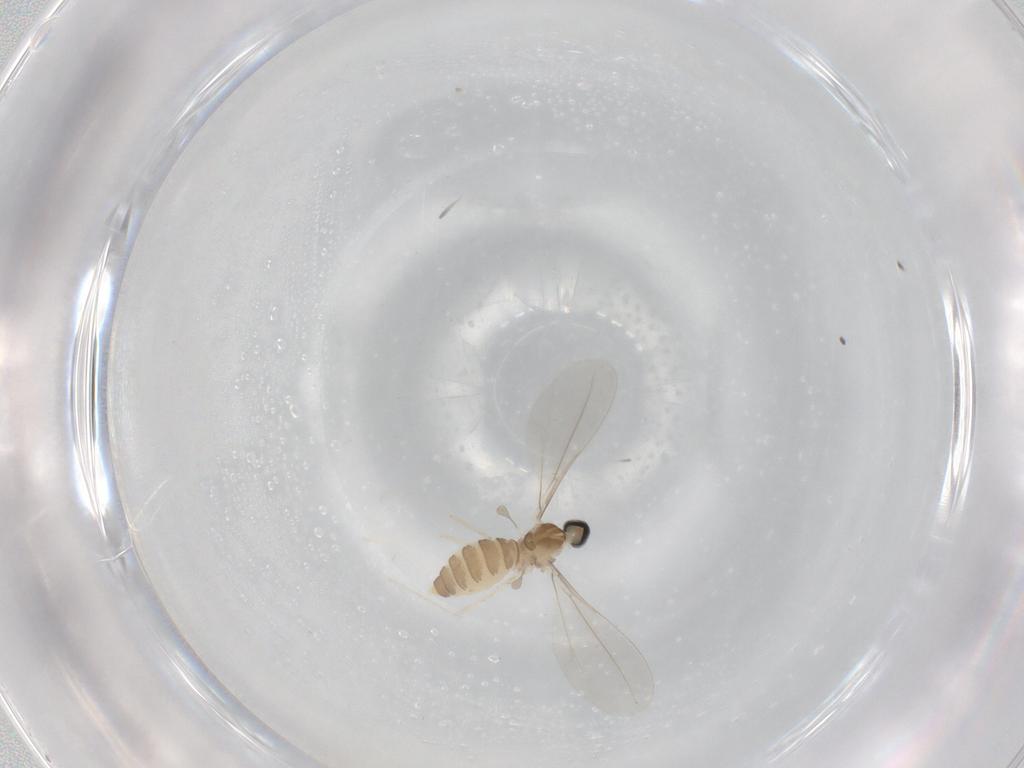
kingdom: Animalia
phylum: Arthropoda
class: Insecta
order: Diptera
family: Cecidomyiidae
